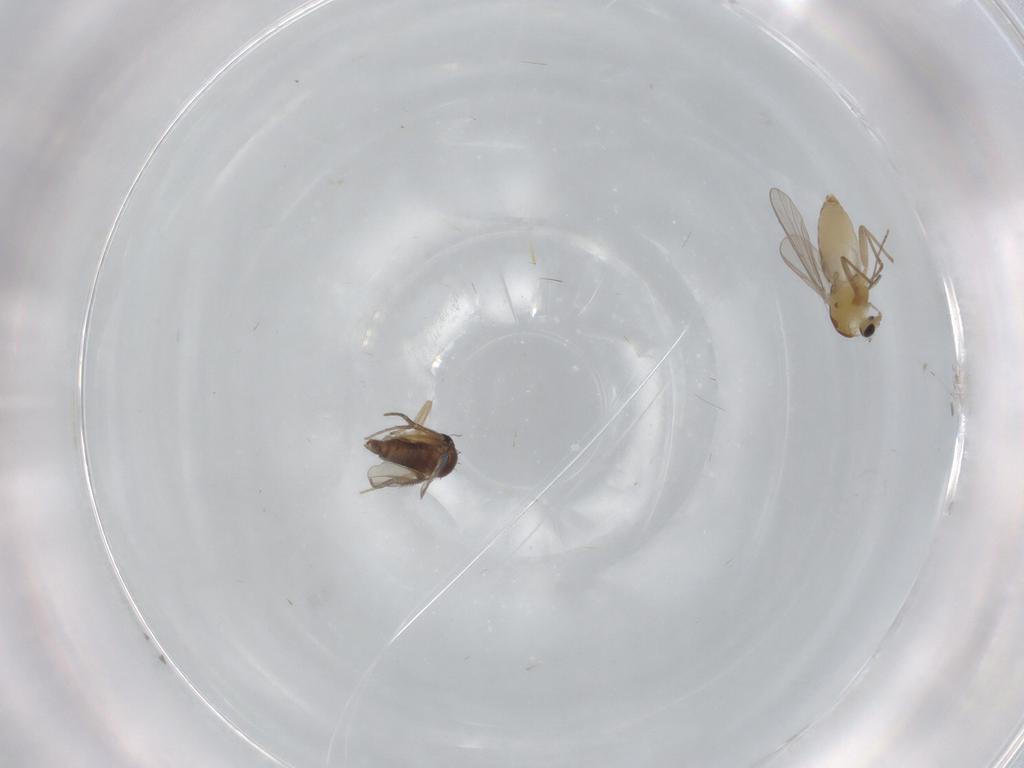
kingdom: Animalia
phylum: Arthropoda
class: Insecta
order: Diptera
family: Chironomidae
